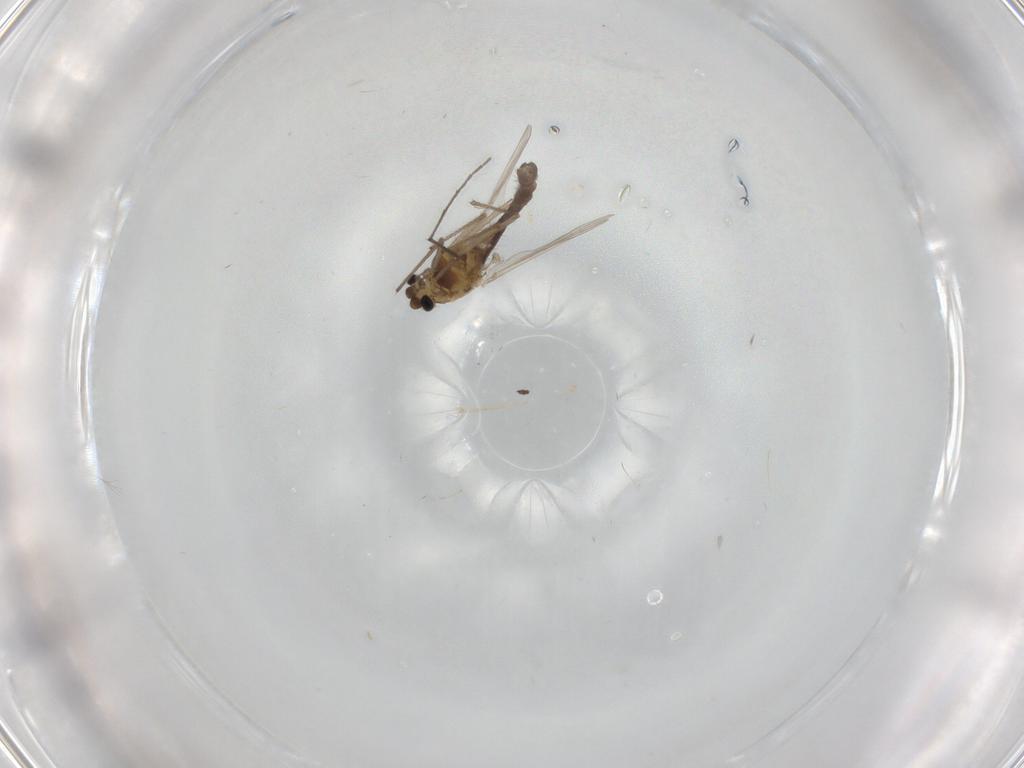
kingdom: Animalia
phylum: Arthropoda
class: Insecta
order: Diptera
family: Chironomidae
